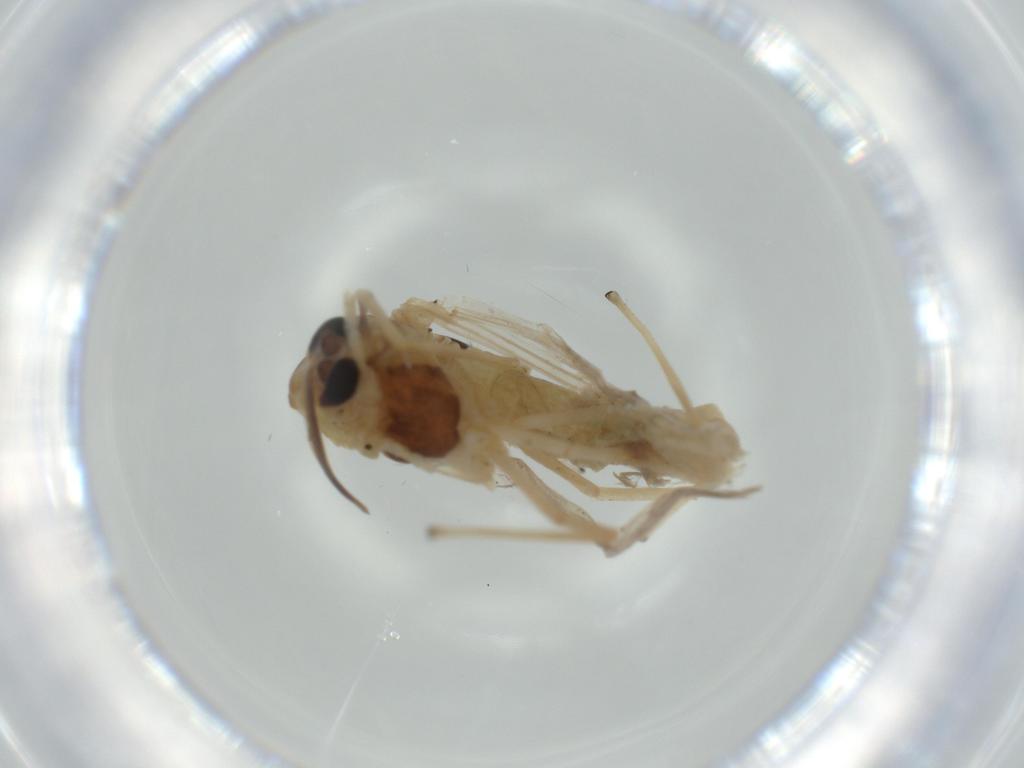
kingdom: Animalia
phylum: Arthropoda
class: Insecta
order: Diptera
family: Chironomidae
